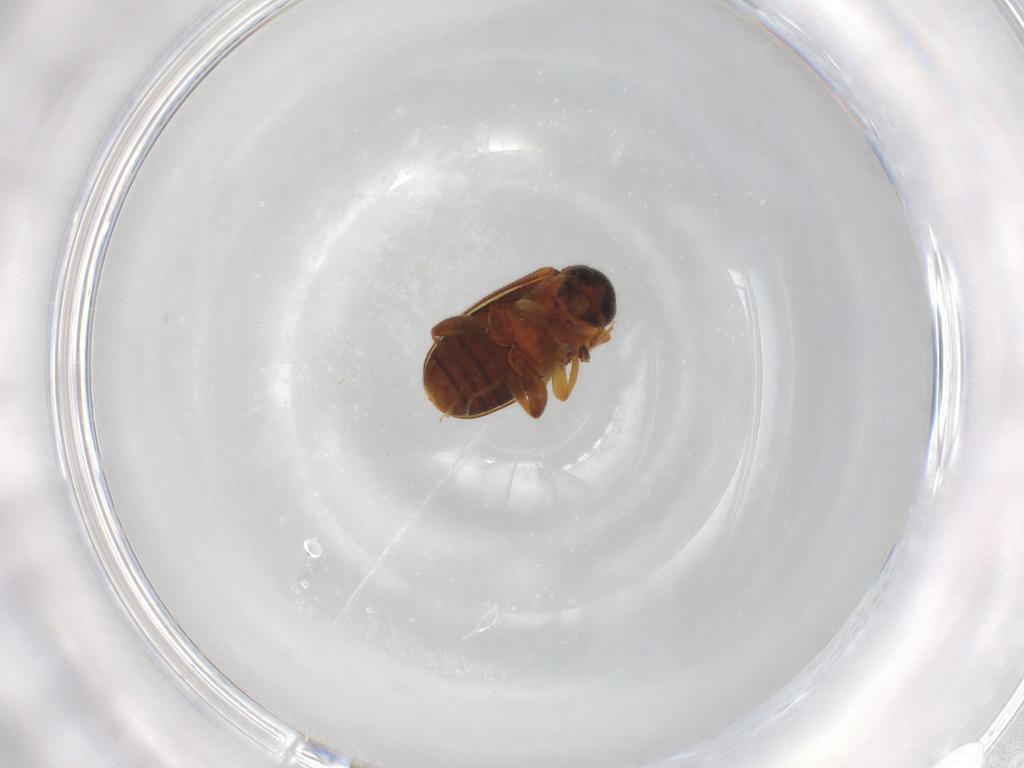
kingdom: Animalia
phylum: Arthropoda
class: Insecta
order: Coleoptera
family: Aderidae
